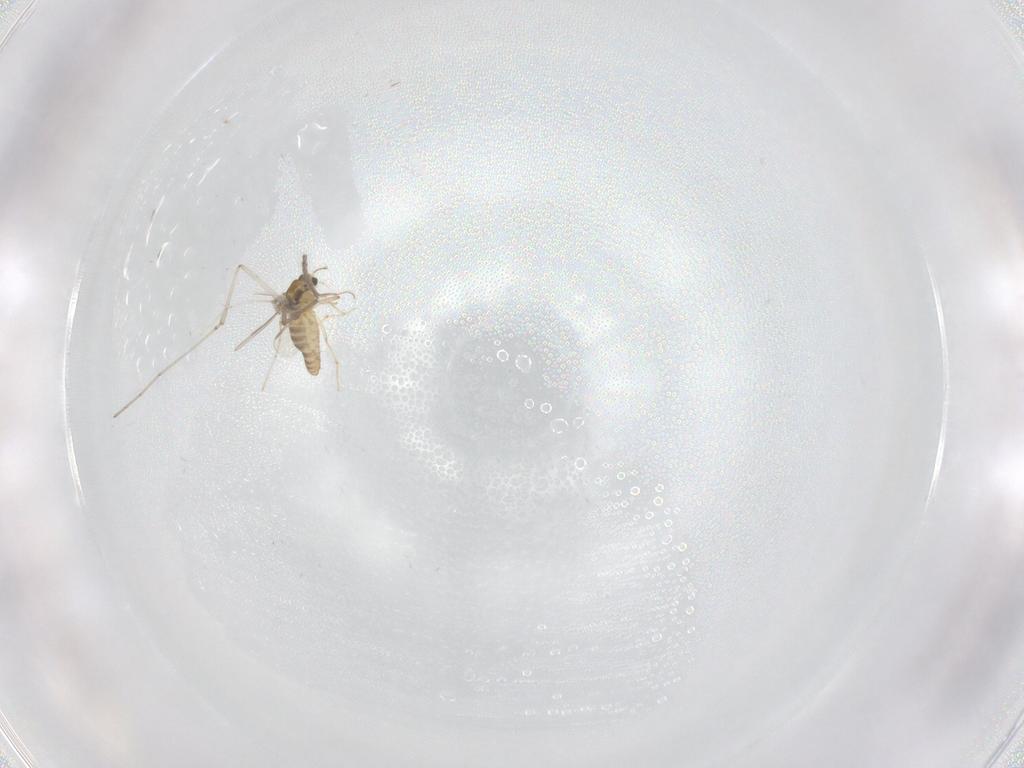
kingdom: Animalia
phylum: Arthropoda
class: Insecta
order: Diptera
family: Chironomidae
